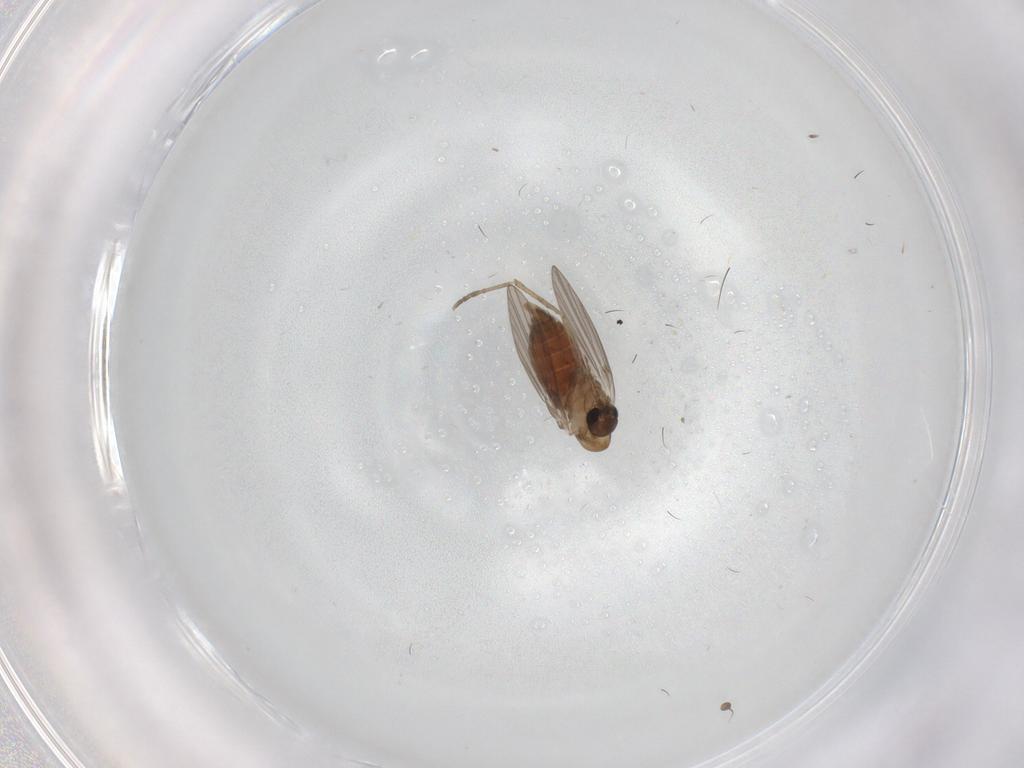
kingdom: Animalia
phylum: Arthropoda
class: Insecta
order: Diptera
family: Psychodidae
